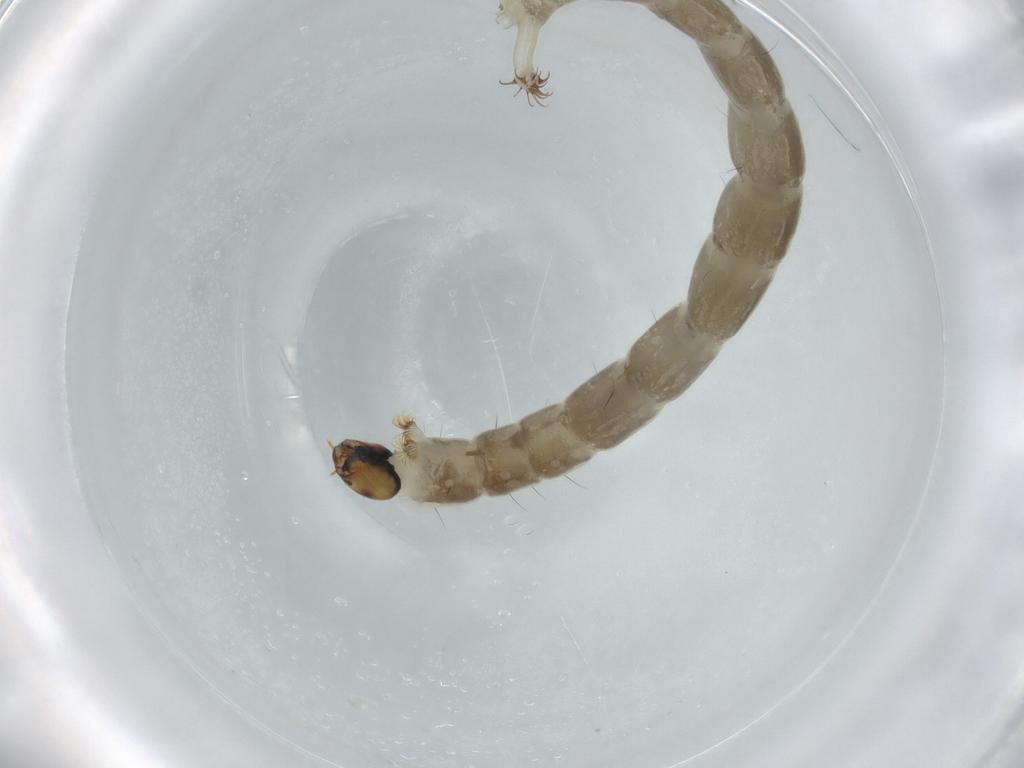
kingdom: Animalia
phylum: Arthropoda
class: Insecta
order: Diptera
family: Chironomidae
